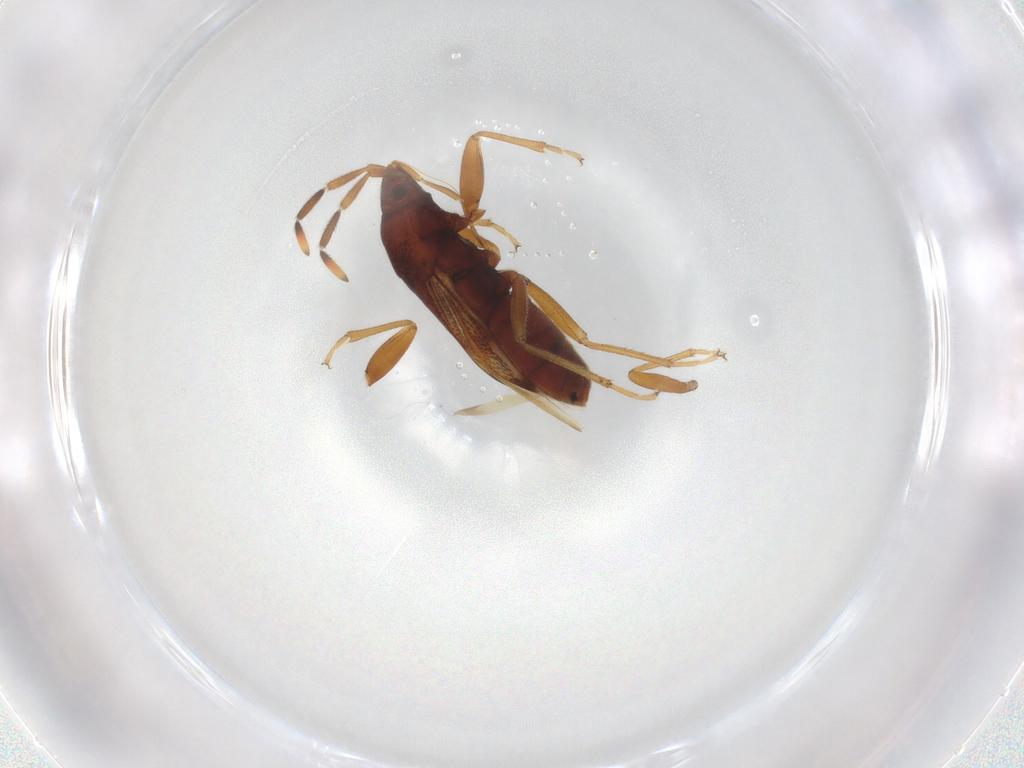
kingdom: Animalia
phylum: Arthropoda
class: Insecta
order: Hemiptera
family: Rhyparochromidae
